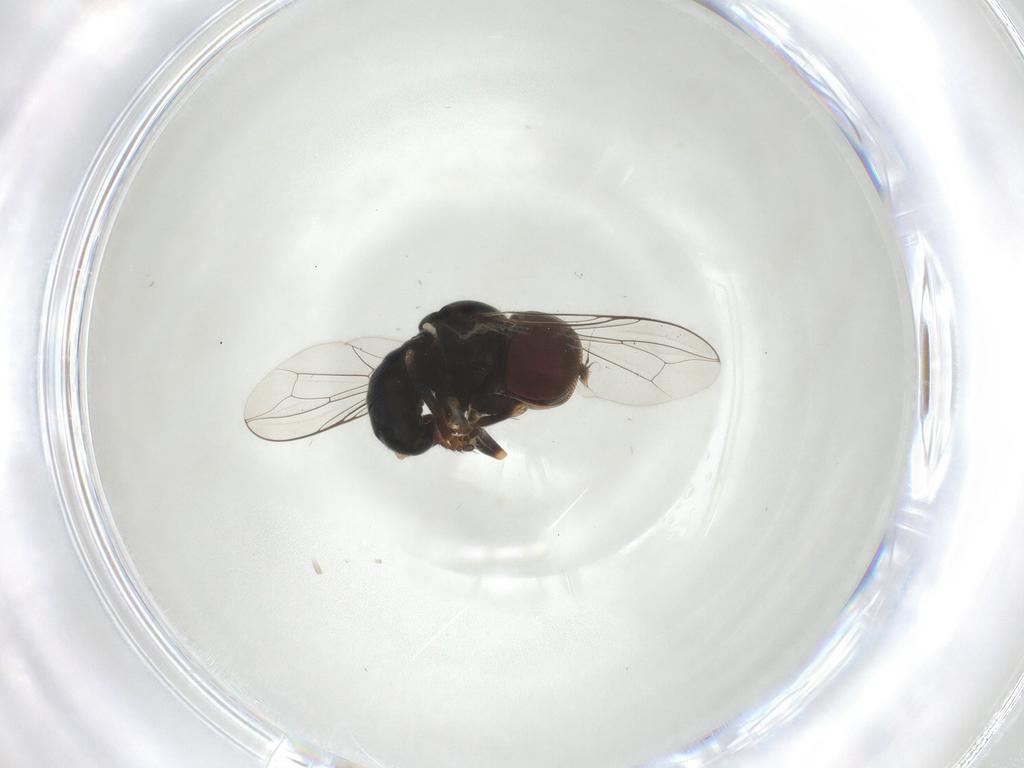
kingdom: Animalia
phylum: Arthropoda
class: Insecta
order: Diptera
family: Pipunculidae
